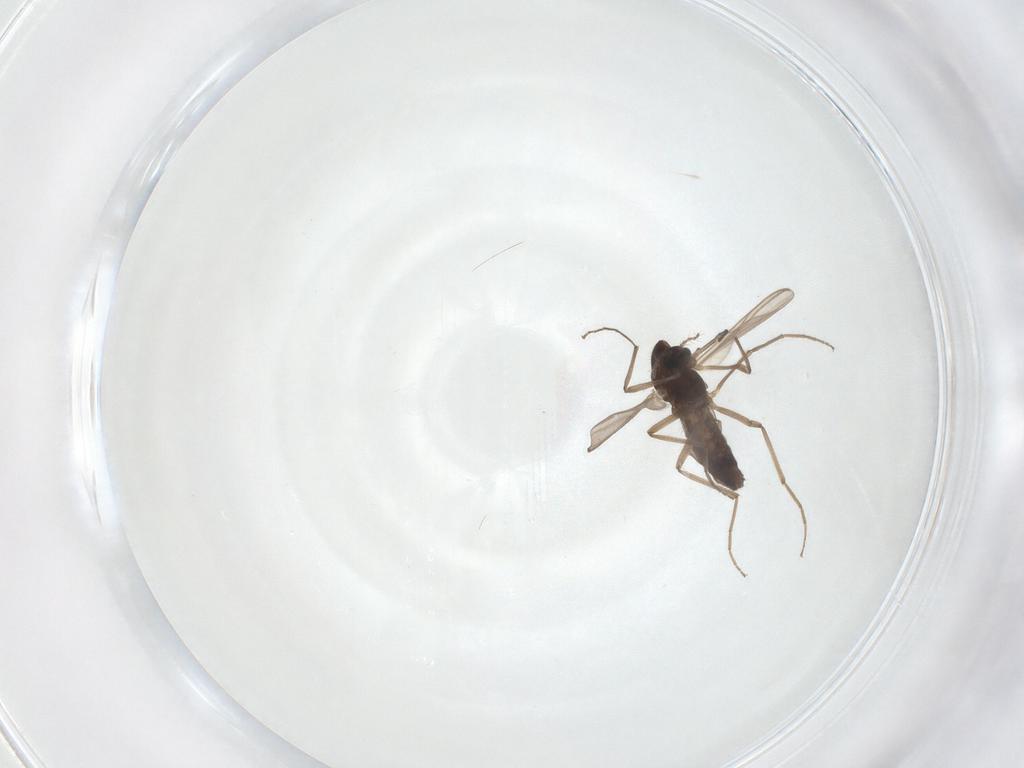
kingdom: Animalia
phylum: Arthropoda
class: Insecta
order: Diptera
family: Chironomidae
